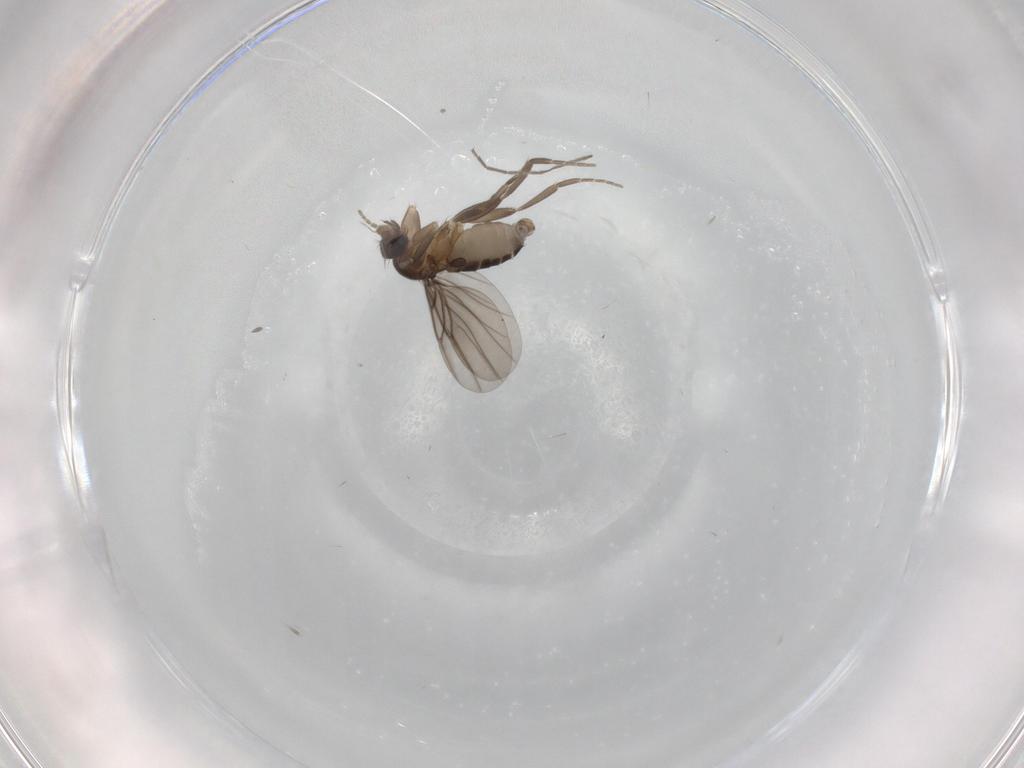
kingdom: Animalia
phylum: Arthropoda
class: Insecta
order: Diptera
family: Phoridae
